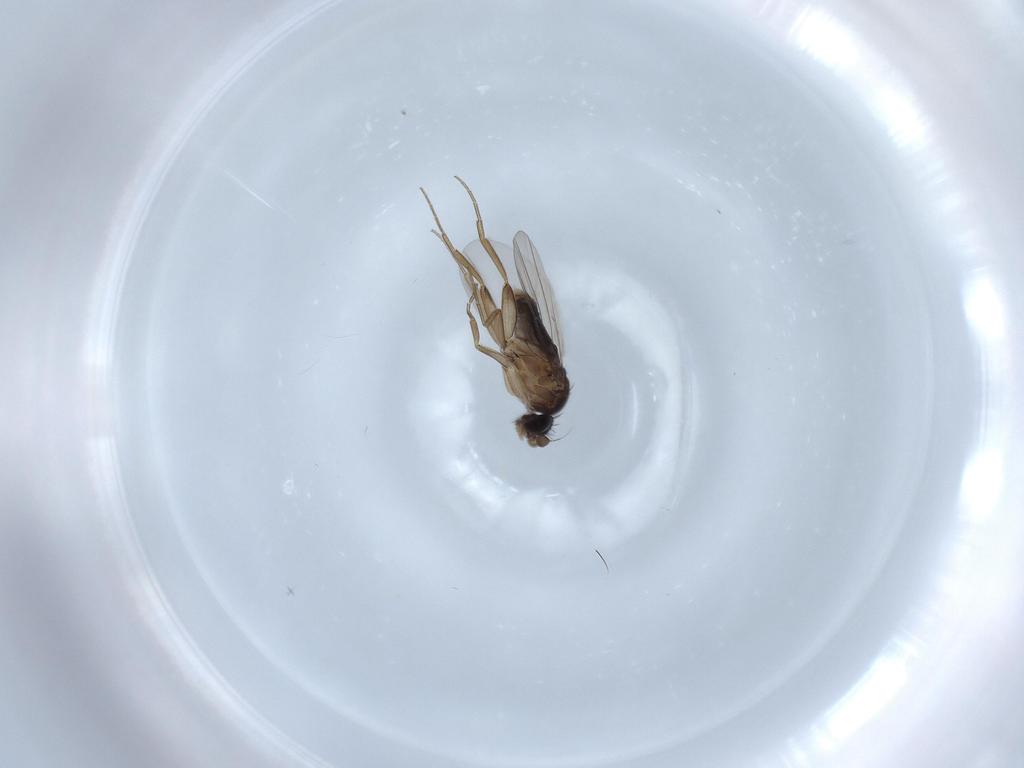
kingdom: Animalia
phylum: Arthropoda
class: Insecta
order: Diptera
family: Phoridae
